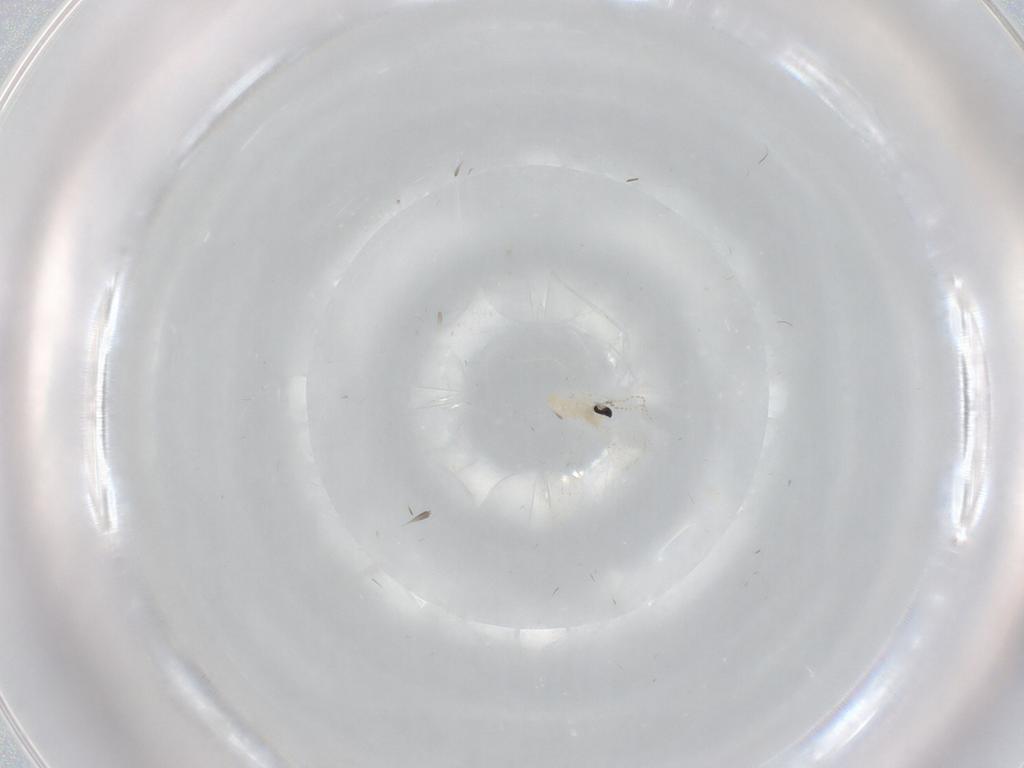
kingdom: Animalia
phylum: Arthropoda
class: Insecta
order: Diptera
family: Cecidomyiidae
